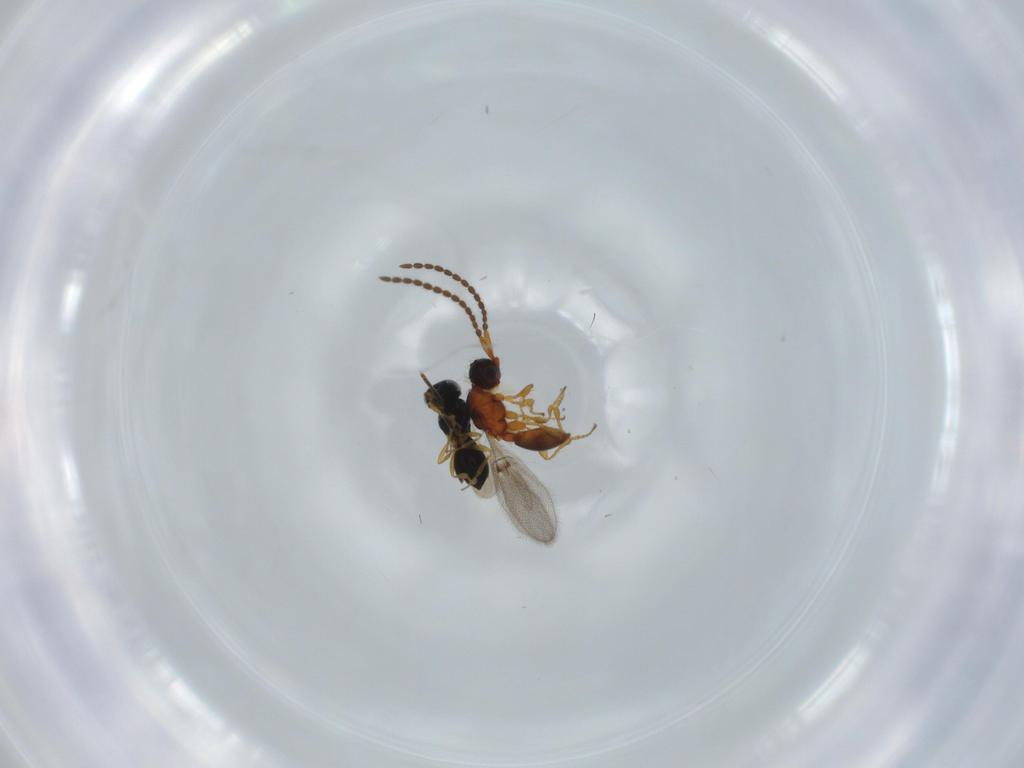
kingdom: Animalia
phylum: Arthropoda
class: Insecta
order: Hymenoptera
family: Scelionidae
